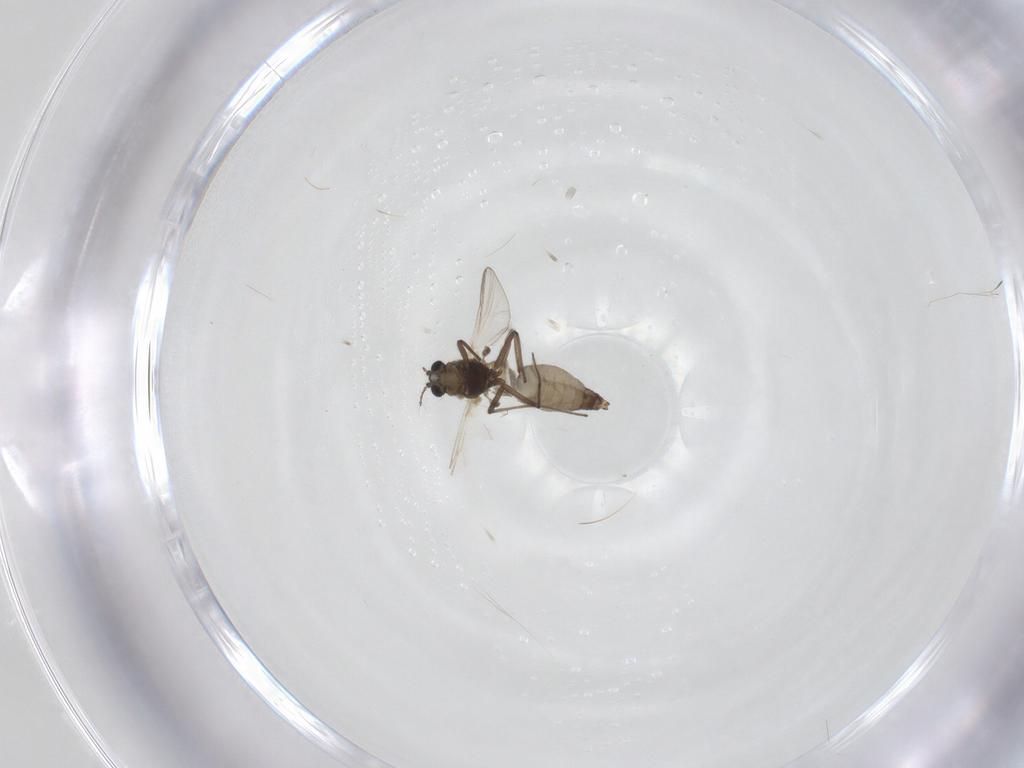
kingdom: Animalia
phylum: Arthropoda
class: Insecta
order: Diptera
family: Chironomidae
